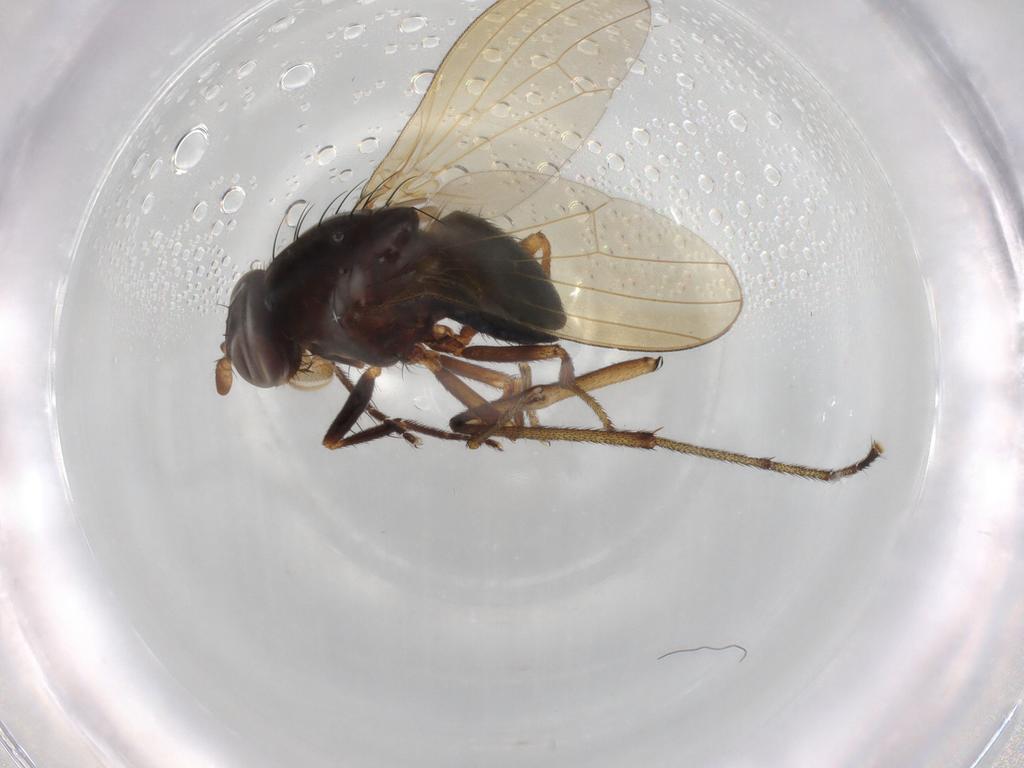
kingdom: Animalia
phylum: Arthropoda
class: Insecta
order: Diptera
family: Lauxaniidae
